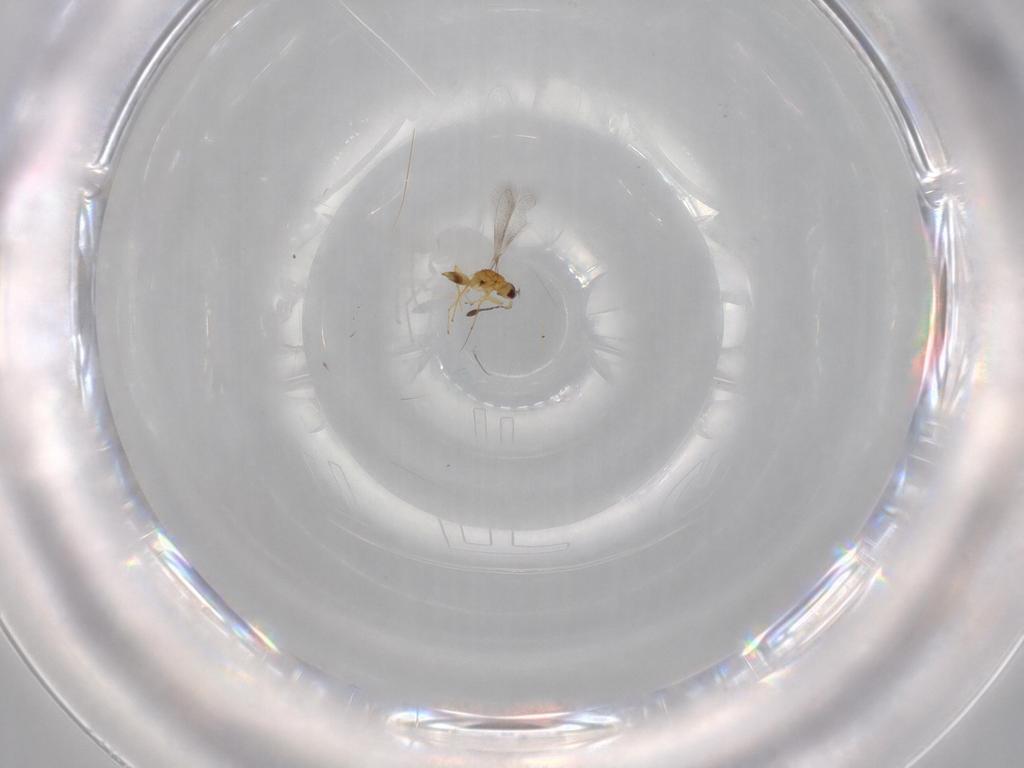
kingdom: Animalia
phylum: Arthropoda
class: Insecta
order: Hymenoptera
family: Mymaridae
